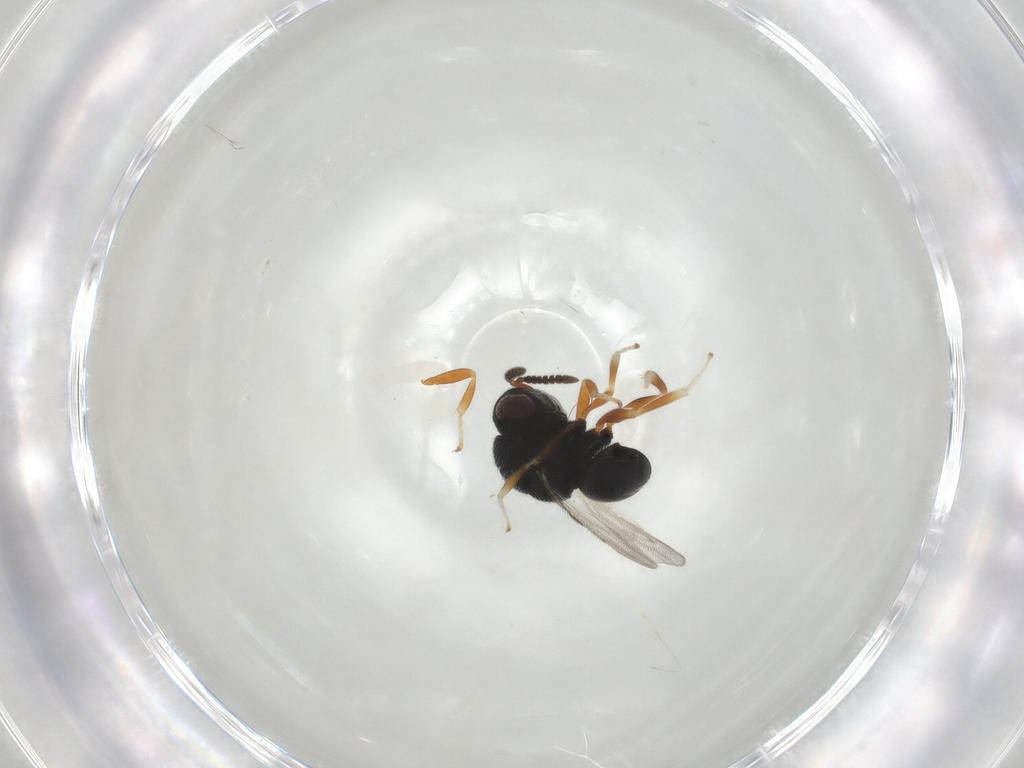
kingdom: Animalia
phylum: Arthropoda
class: Insecta
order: Hymenoptera
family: Eurytomidae
